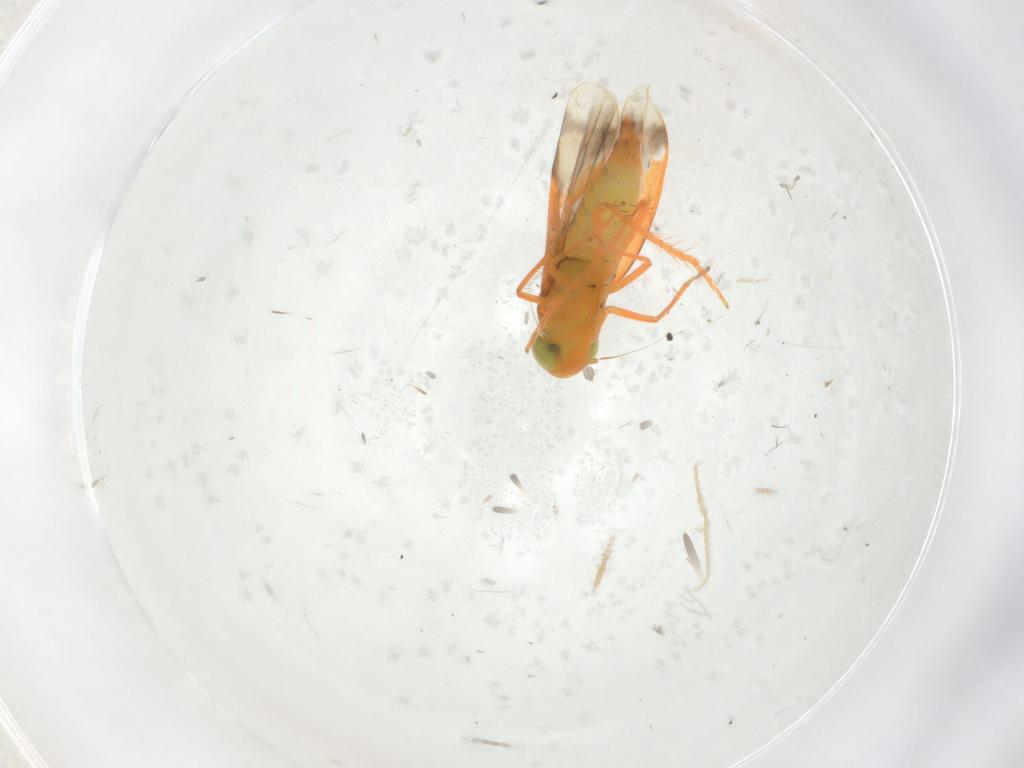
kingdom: Animalia
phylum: Arthropoda
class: Insecta
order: Hemiptera
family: Cicadellidae
